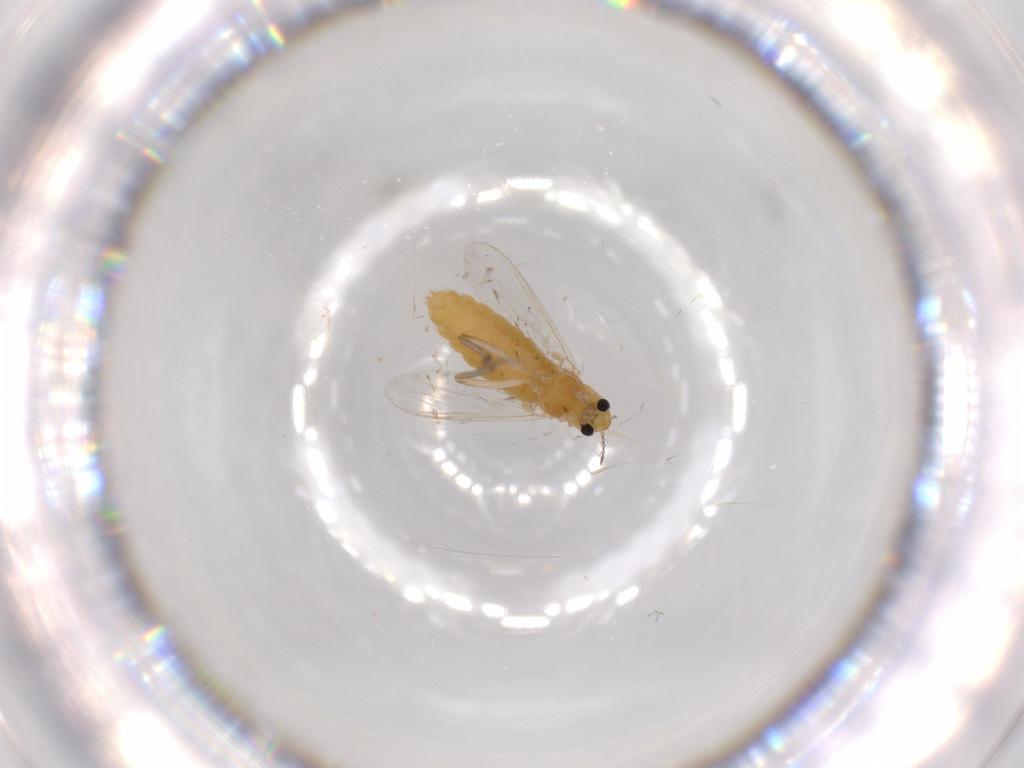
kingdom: Animalia
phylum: Arthropoda
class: Insecta
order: Diptera
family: Chironomidae
